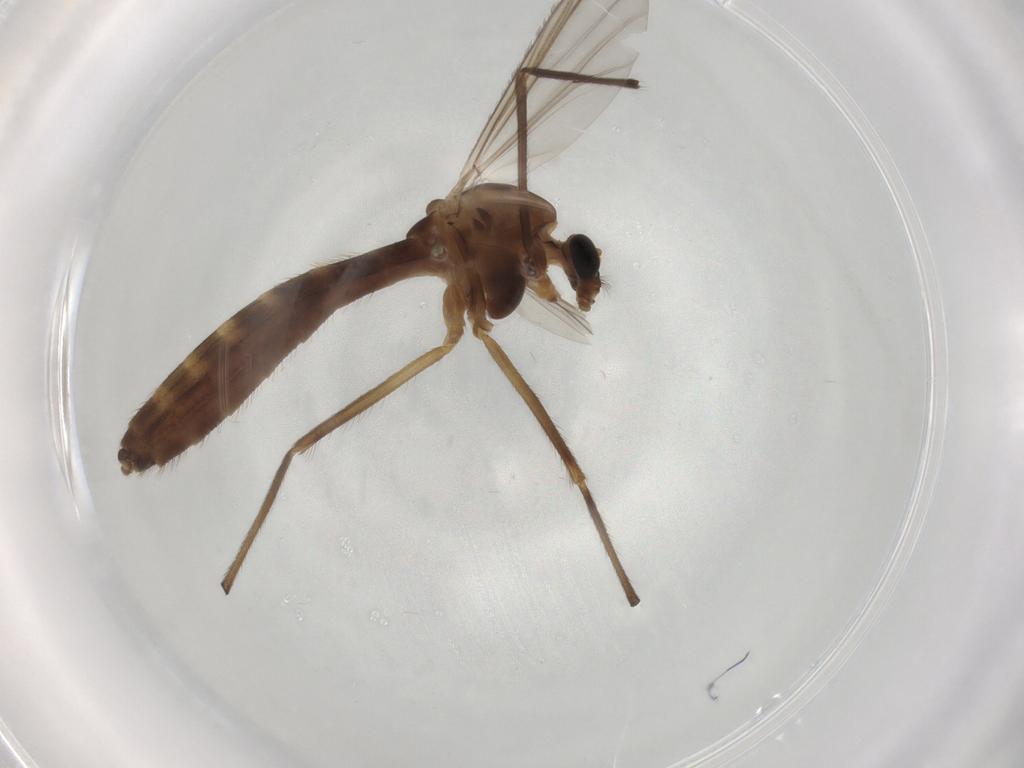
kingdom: Animalia
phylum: Arthropoda
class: Insecta
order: Diptera
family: Chironomidae
